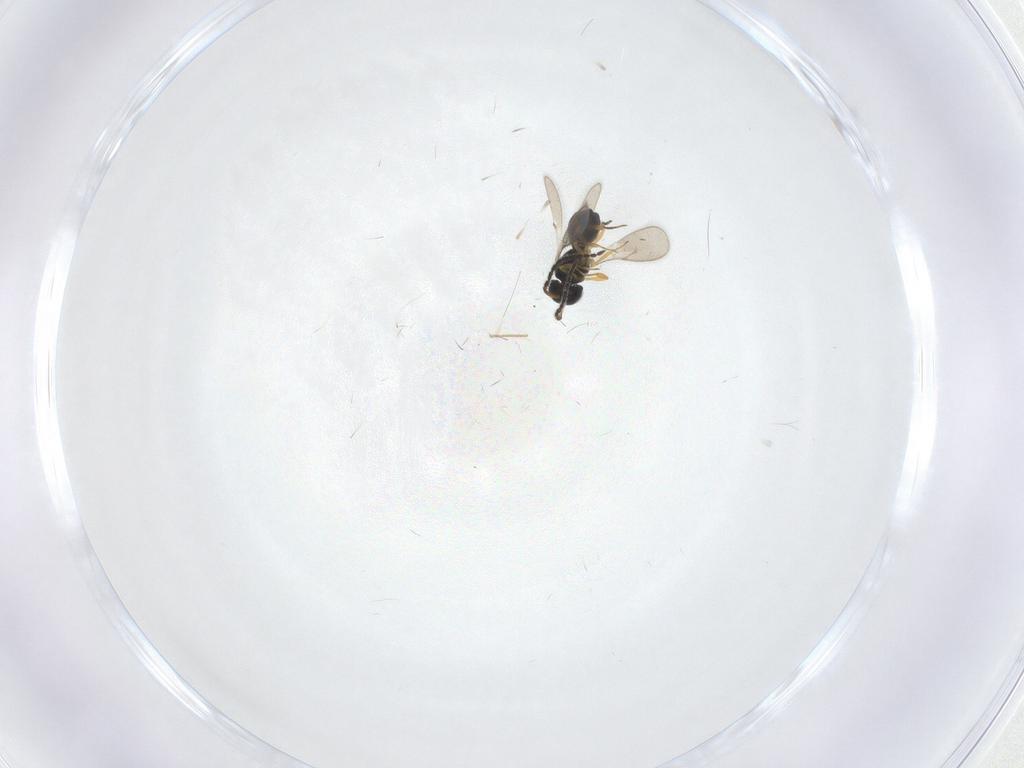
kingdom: Animalia
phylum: Arthropoda
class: Insecta
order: Hymenoptera
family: Scelionidae
